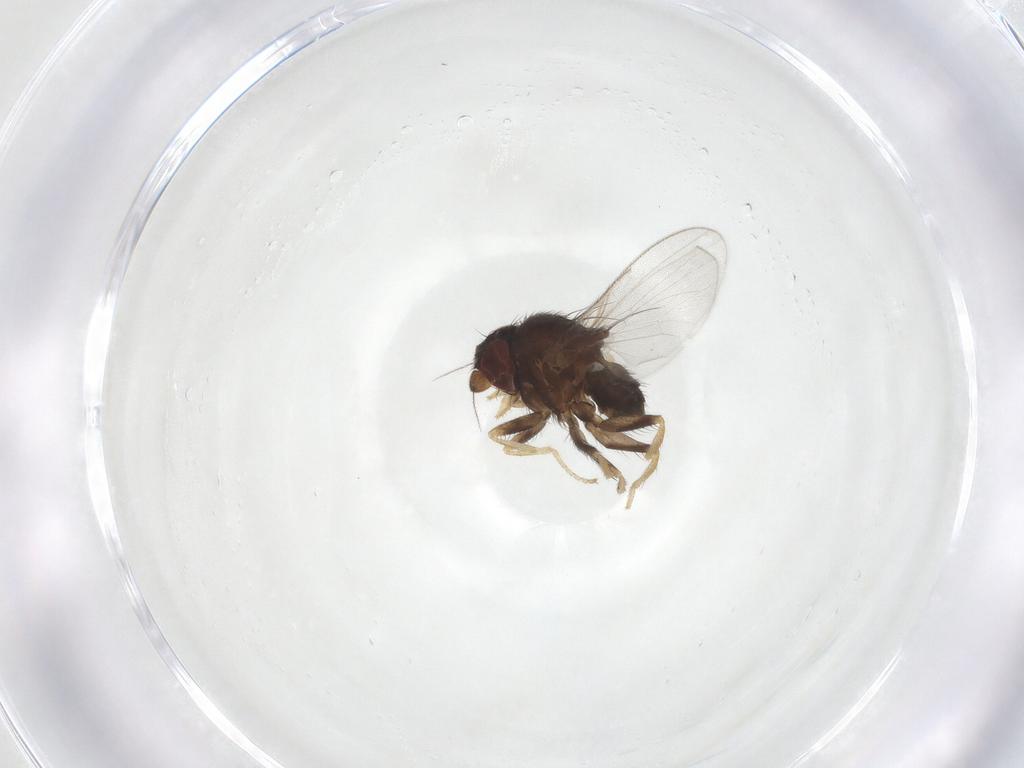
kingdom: Animalia
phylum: Arthropoda
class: Insecta
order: Diptera
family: Milichiidae
